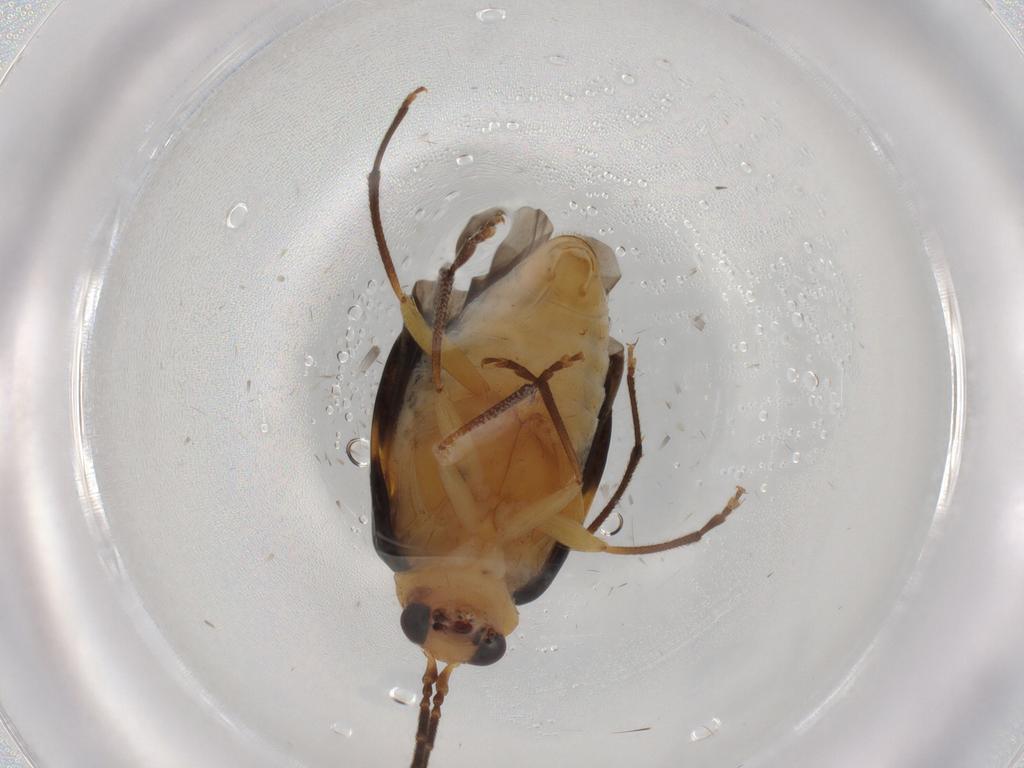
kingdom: Animalia
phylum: Arthropoda
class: Insecta
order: Coleoptera
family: Chrysomelidae
